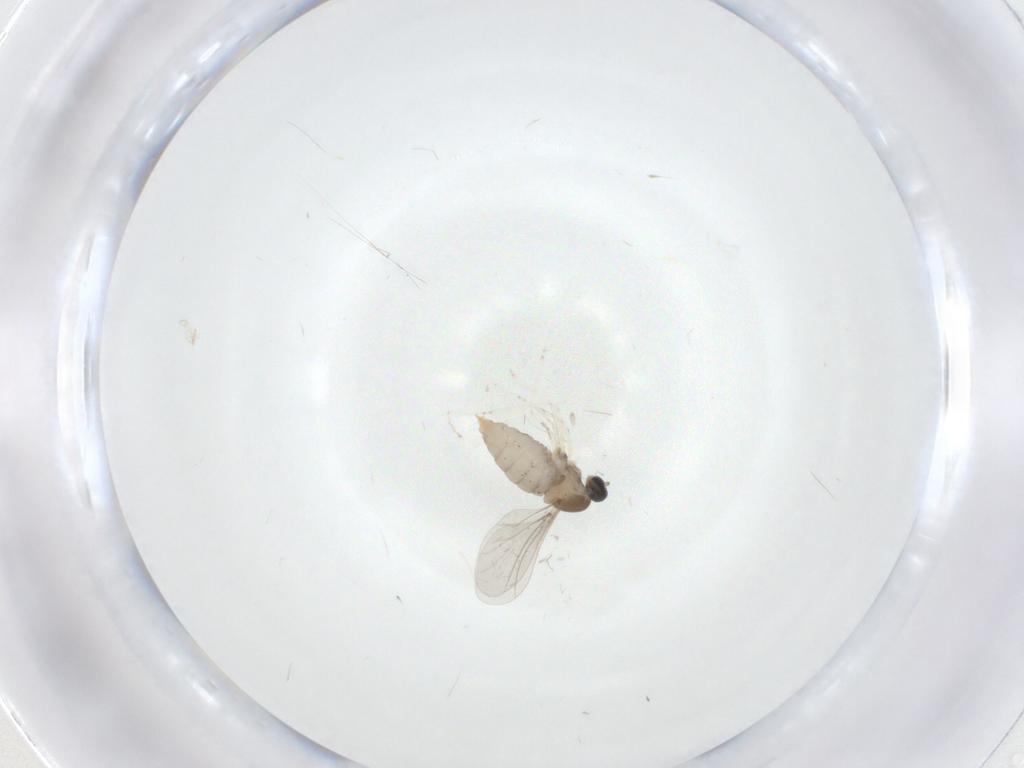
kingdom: Animalia
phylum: Arthropoda
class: Insecta
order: Diptera
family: Cecidomyiidae
